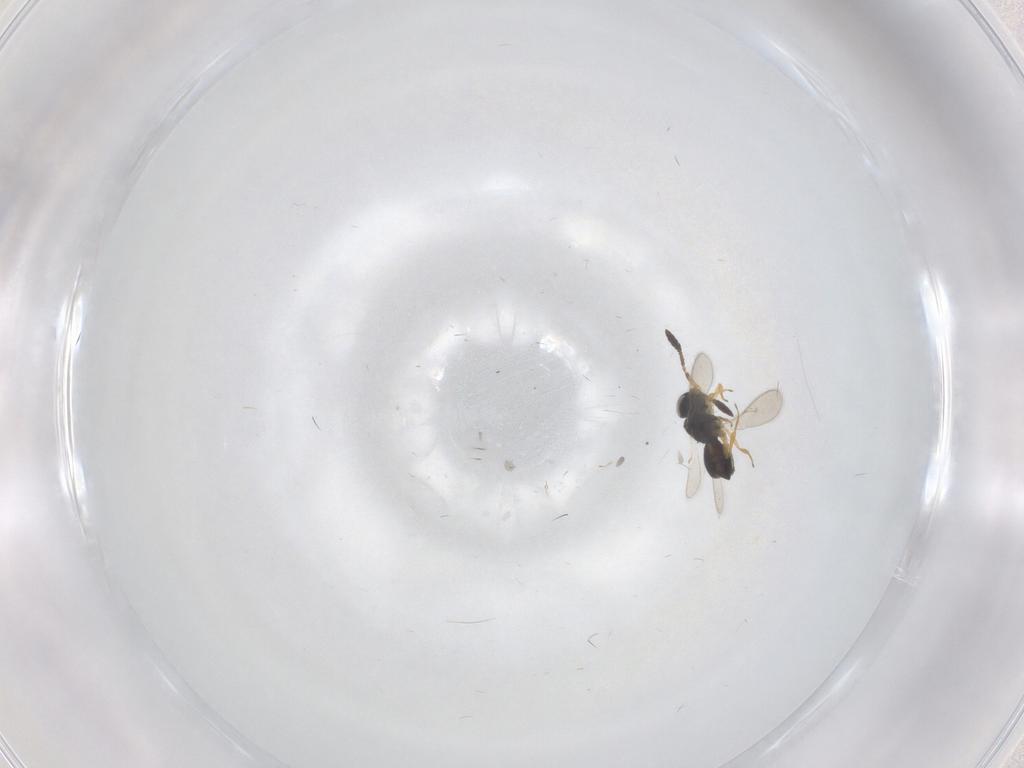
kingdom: Animalia
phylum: Arthropoda
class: Insecta
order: Hymenoptera
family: Scelionidae
